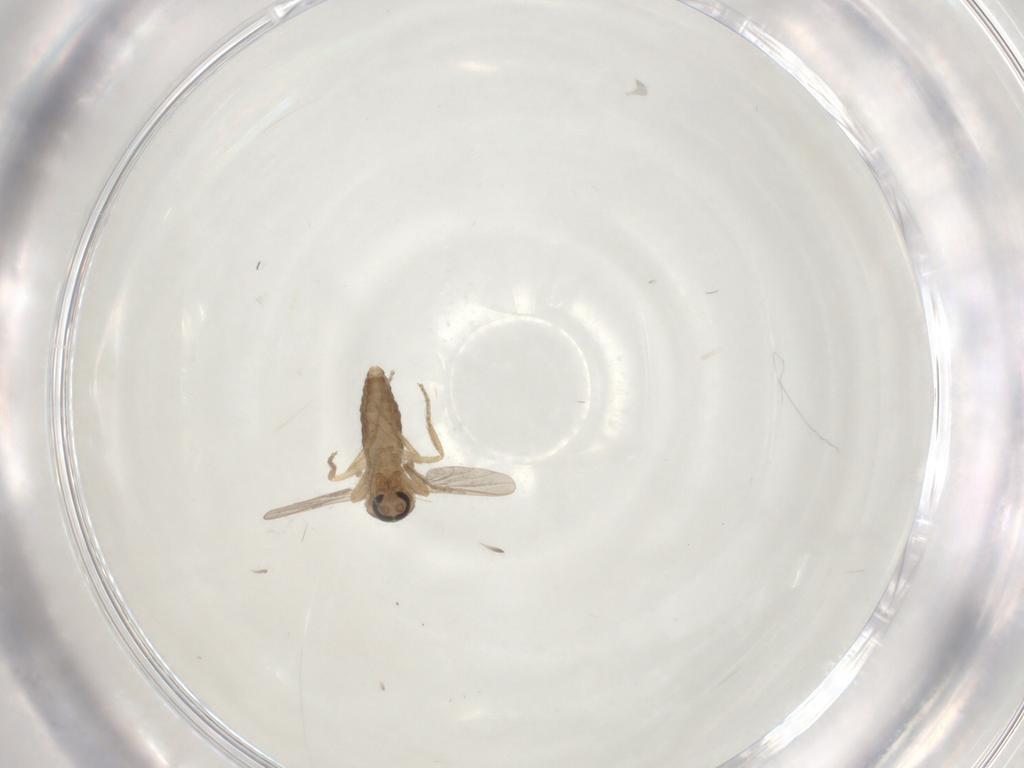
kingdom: Animalia
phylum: Arthropoda
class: Insecta
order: Diptera
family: Ceratopogonidae
